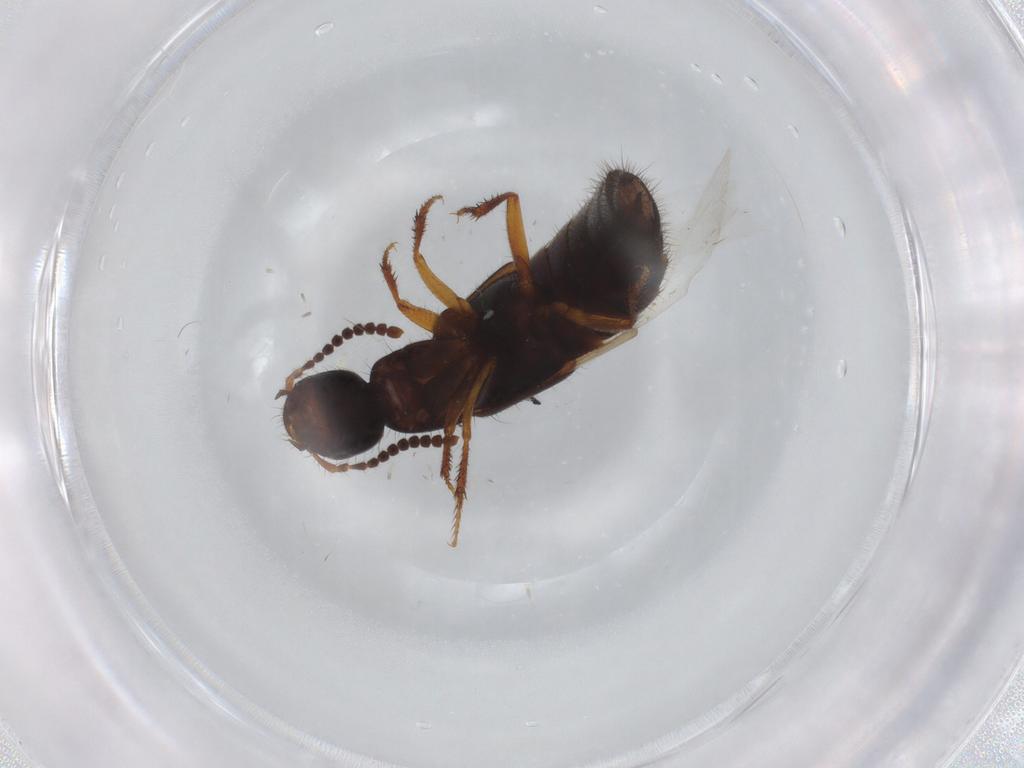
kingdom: Animalia
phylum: Arthropoda
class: Insecta
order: Coleoptera
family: Staphylinidae
